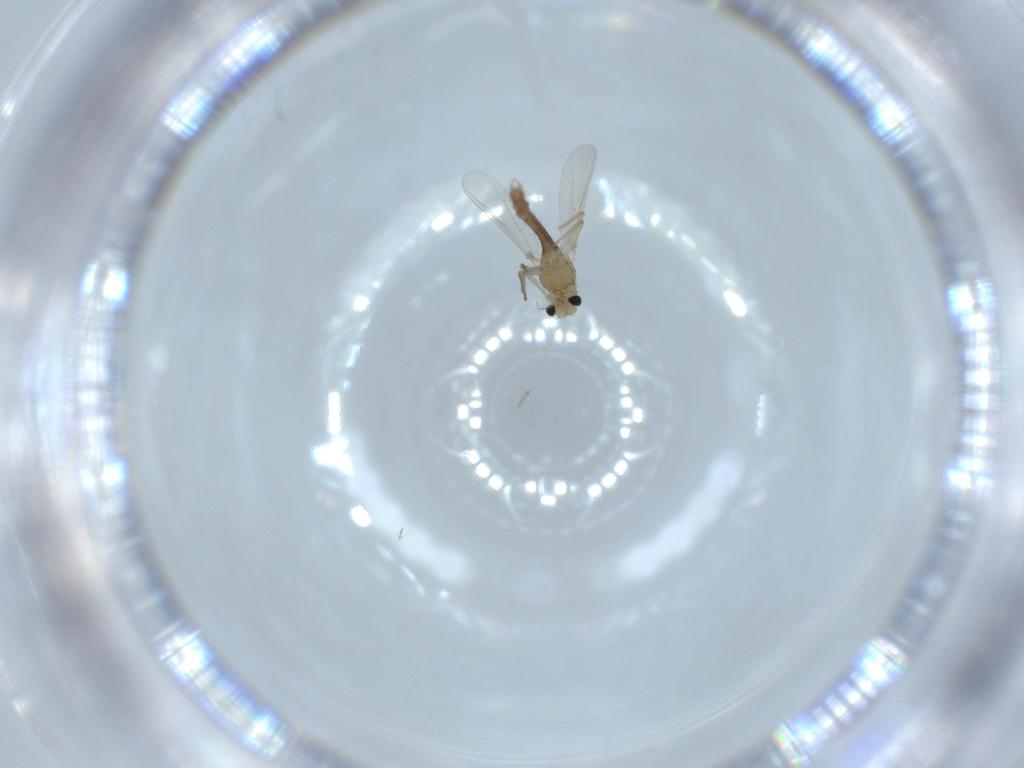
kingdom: Animalia
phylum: Arthropoda
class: Insecta
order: Diptera
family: Chironomidae
